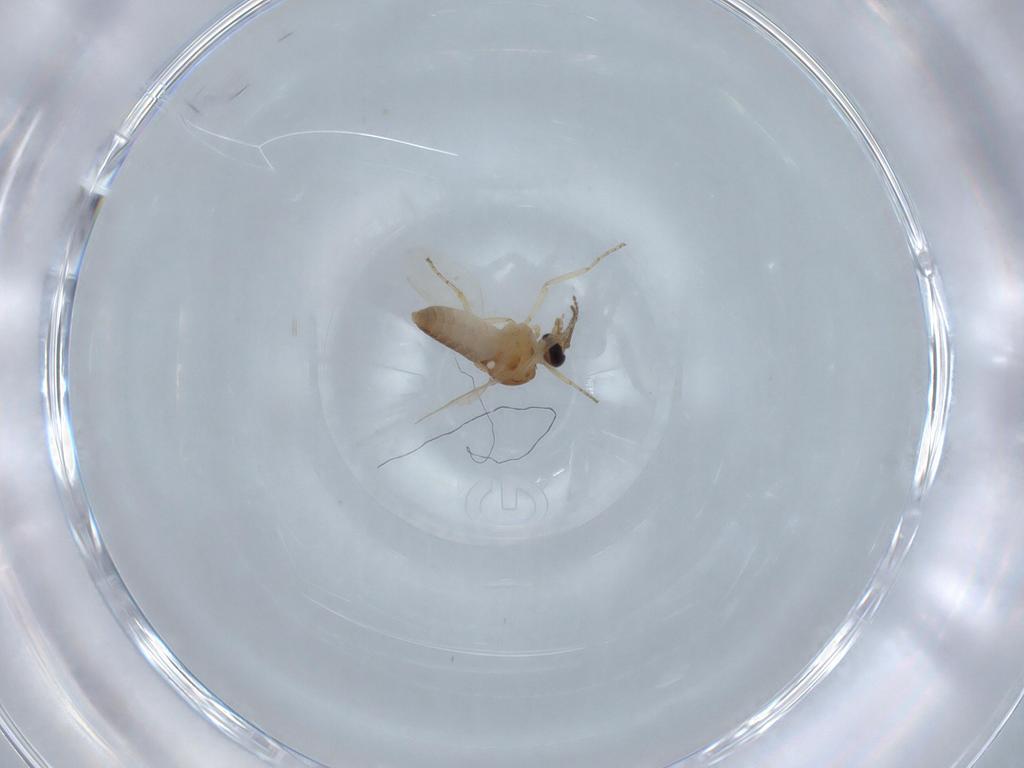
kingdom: Animalia
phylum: Arthropoda
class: Insecta
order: Diptera
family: Ceratopogonidae
